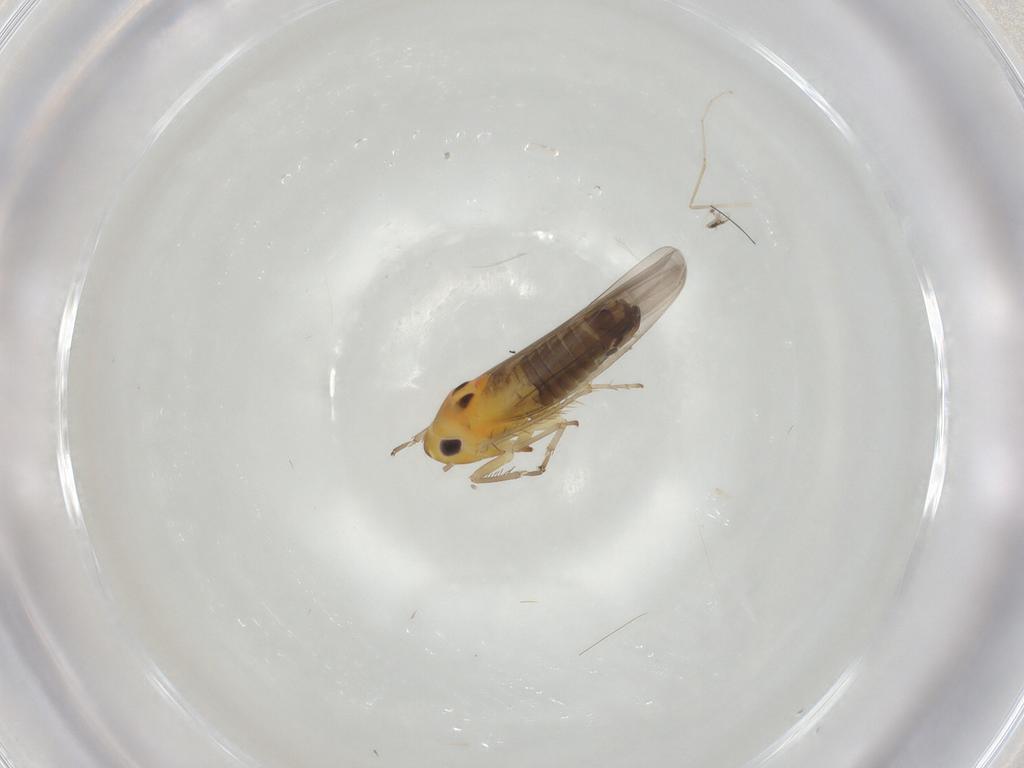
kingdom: Animalia
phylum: Arthropoda
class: Insecta
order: Hemiptera
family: Cicadellidae
